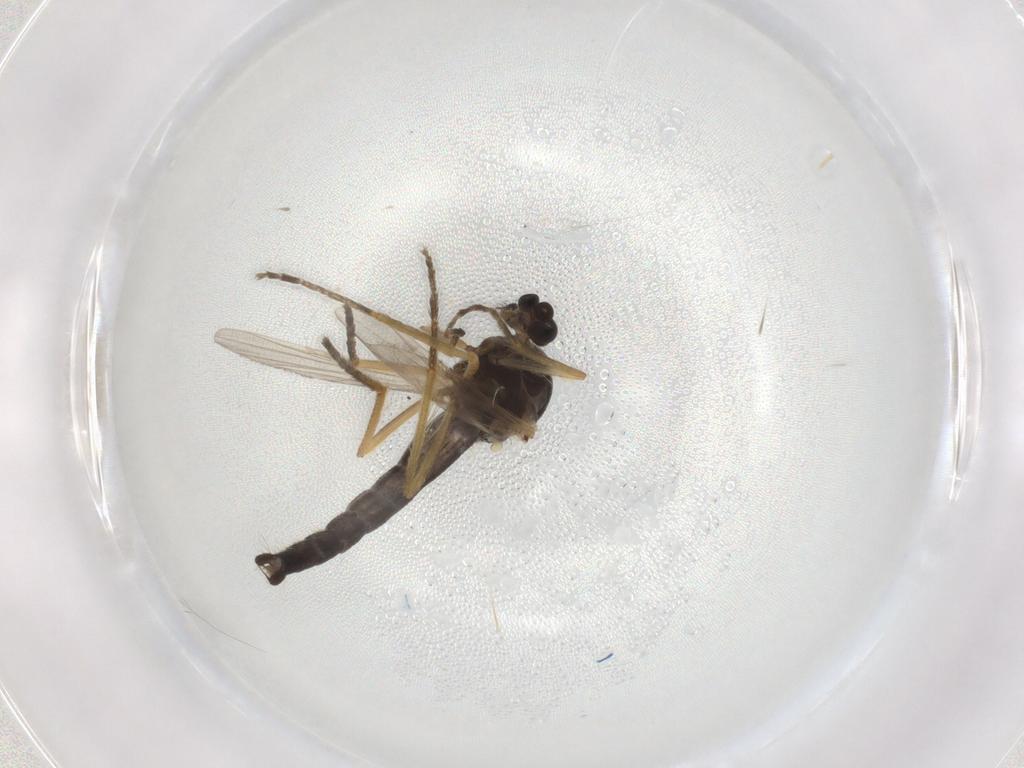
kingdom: Animalia
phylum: Arthropoda
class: Insecta
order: Diptera
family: Ceratopogonidae
